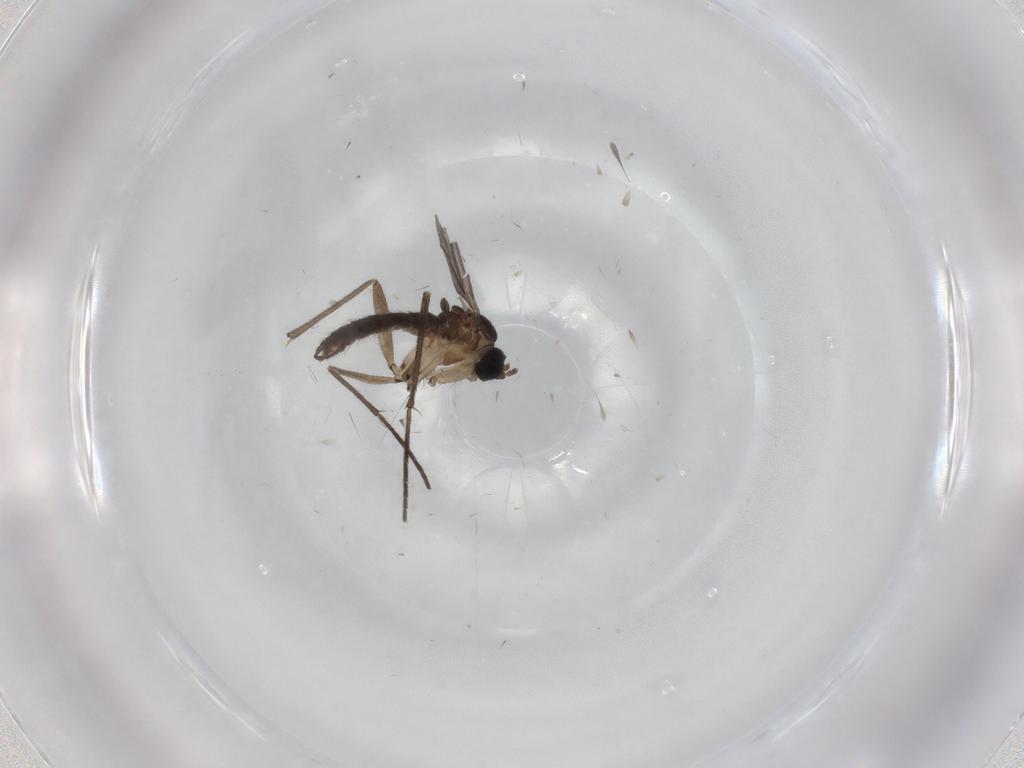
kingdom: Animalia
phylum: Arthropoda
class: Insecta
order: Diptera
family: Sciaridae
